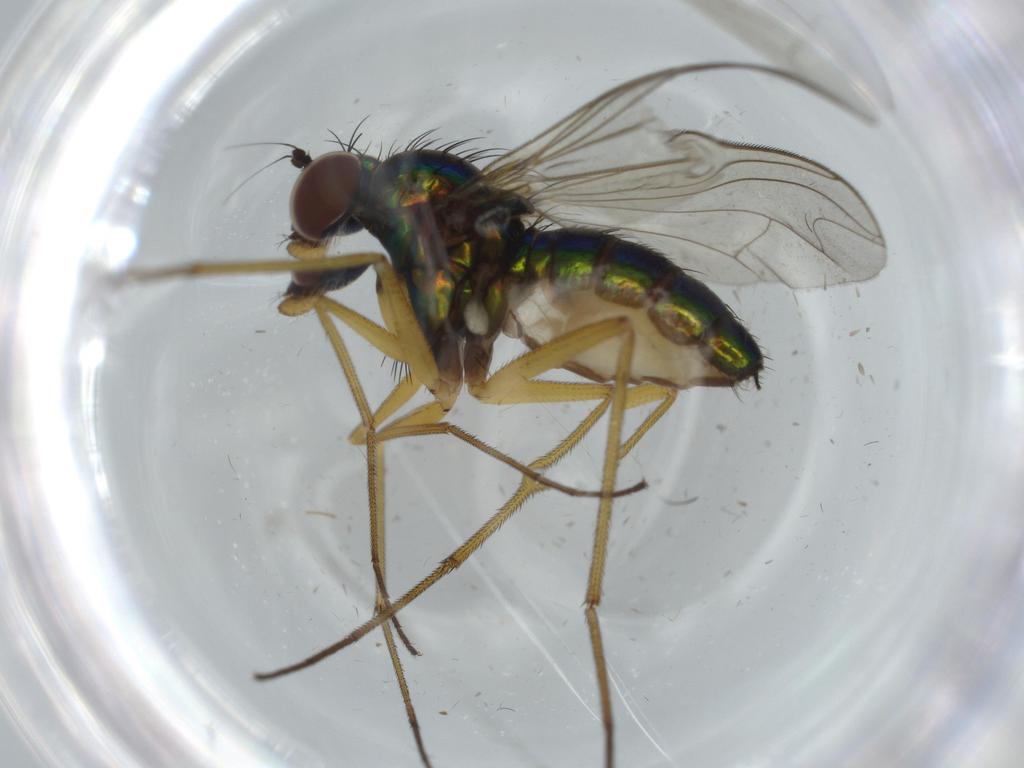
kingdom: Animalia
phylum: Arthropoda
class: Insecta
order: Diptera
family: Dolichopodidae
